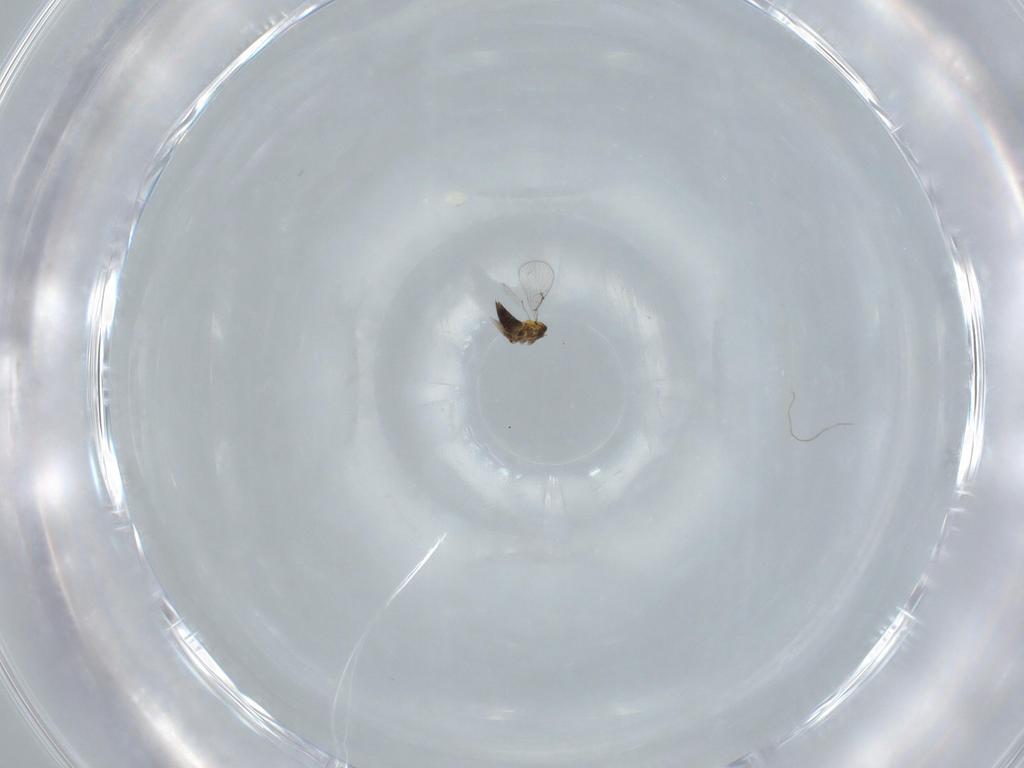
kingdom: Animalia
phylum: Arthropoda
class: Insecta
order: Hymenoptera
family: Trichogrammatidae
